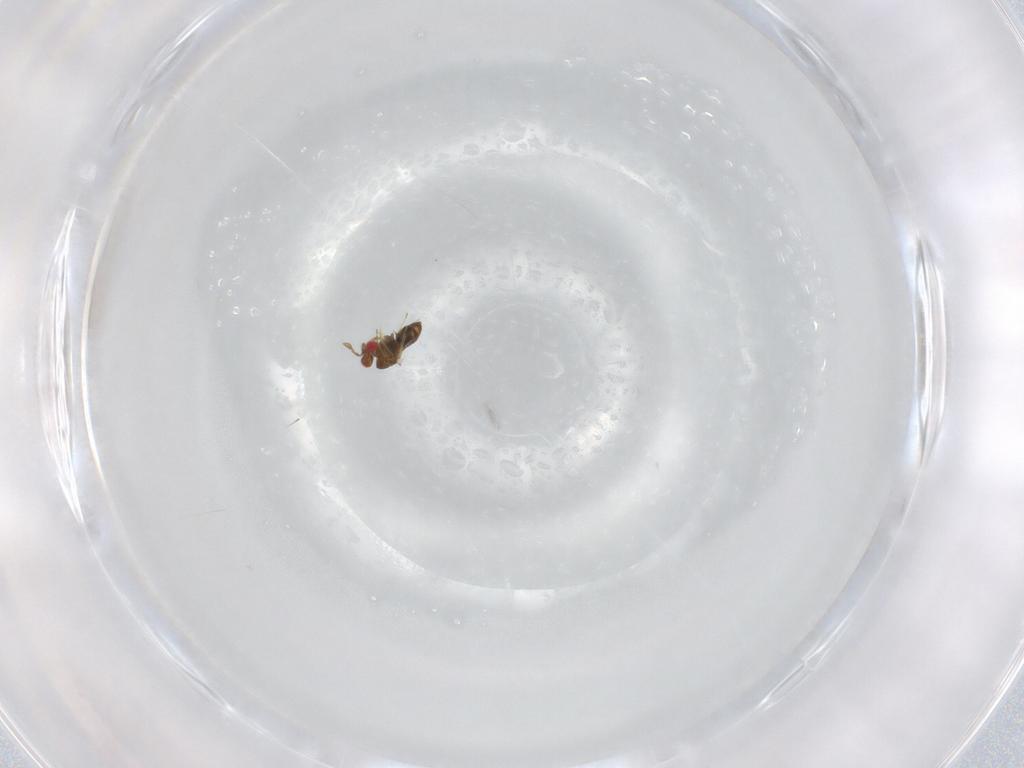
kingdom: Animalia
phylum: Arthropoda
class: Insecta
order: Hymenoptera
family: Trichogrammatidae
